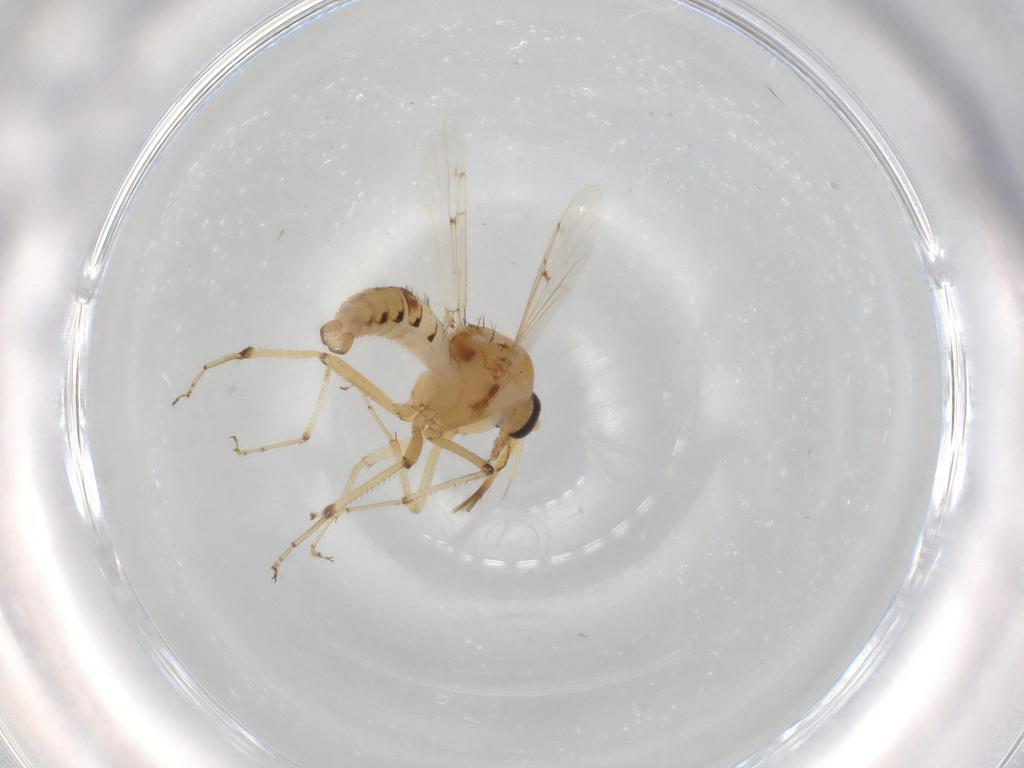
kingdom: Animalia
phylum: Arthropoda
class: Insecta
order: Diptera
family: Ceratopogonidae
